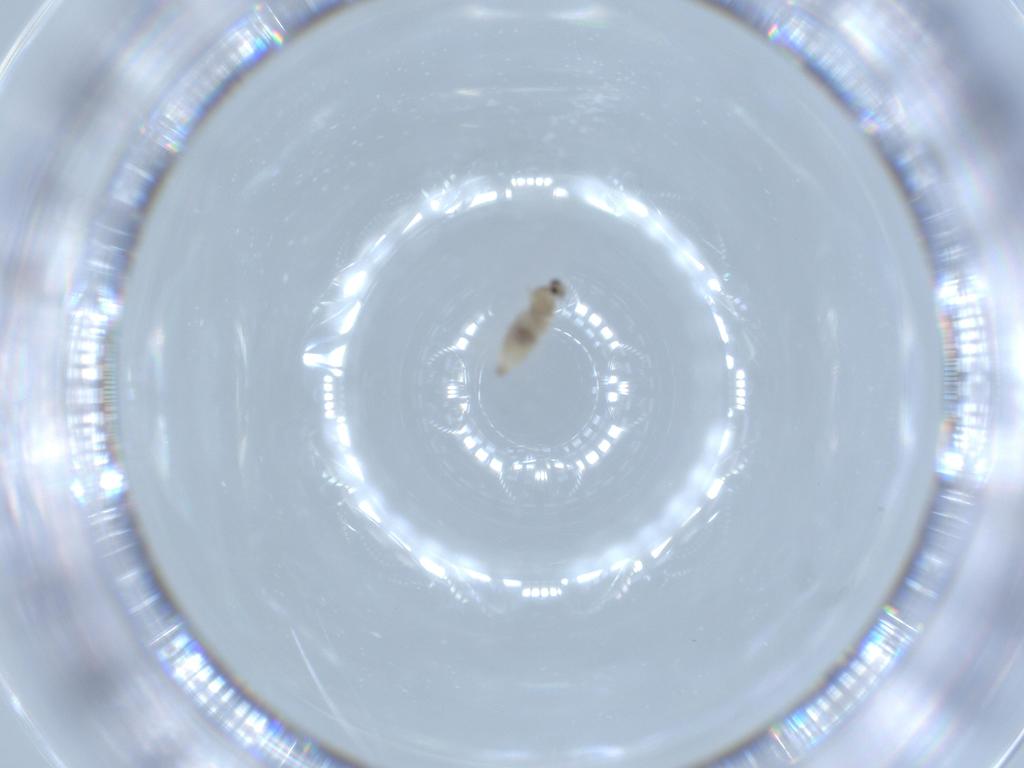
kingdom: Animalia
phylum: Arthropoda
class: Insecta
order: Diptera
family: Cecidomyiidae
